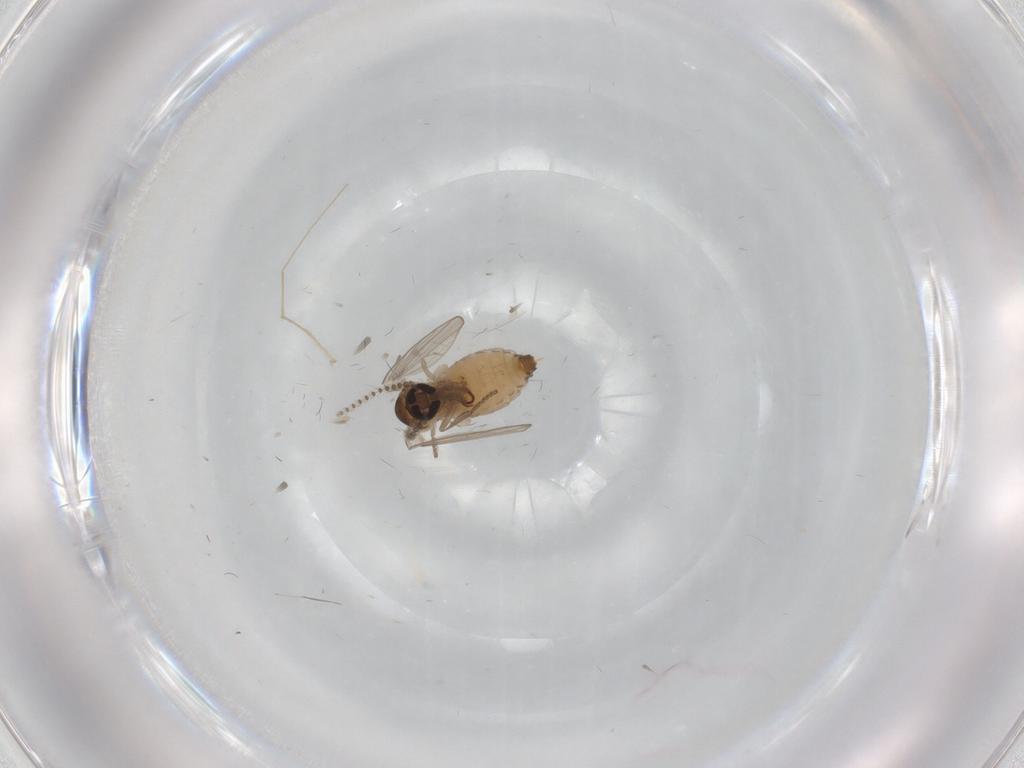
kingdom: Animalia
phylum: Arthropoda
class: Insecta
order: Diptera
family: Psychodidae
